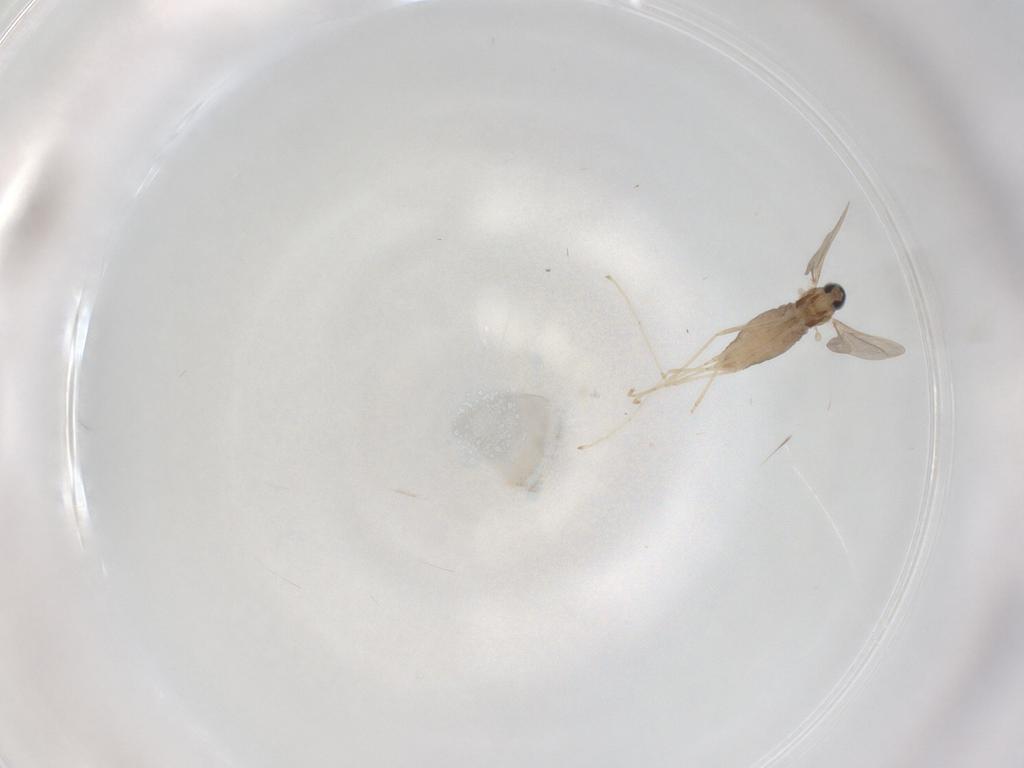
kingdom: Animalia
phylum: Arthropoda
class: Insecta
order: Diptera
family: Cecidomyiidae
